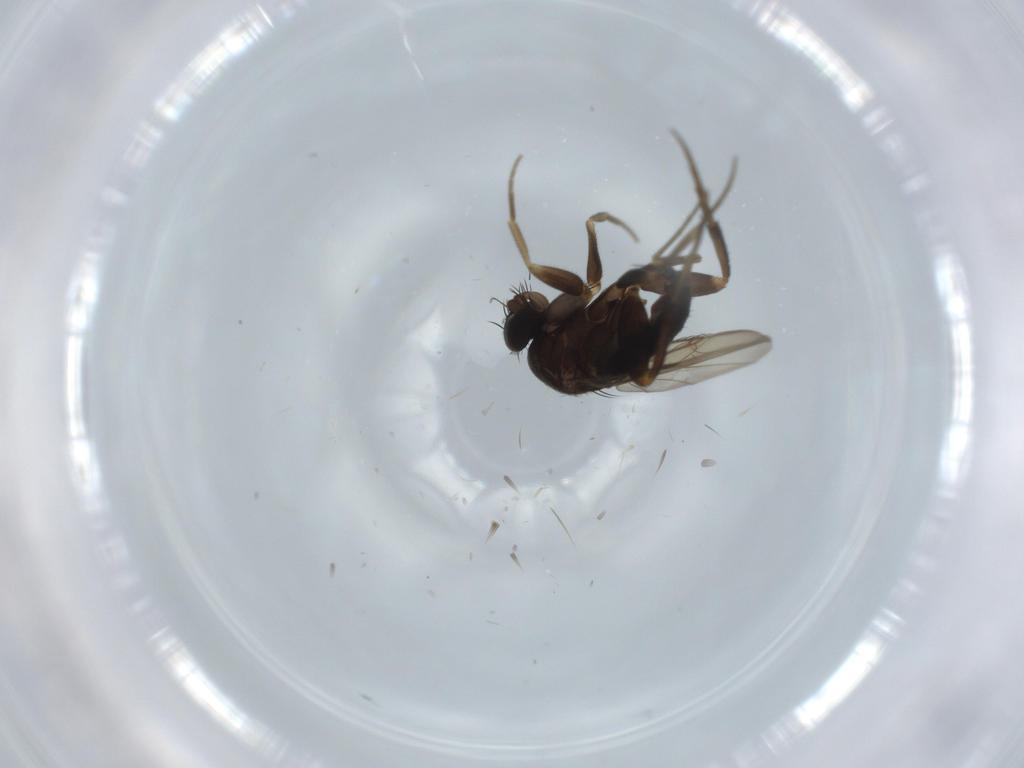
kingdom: Animalia
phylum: Arthropoda
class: Insecta
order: Diptera
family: Phoridae
